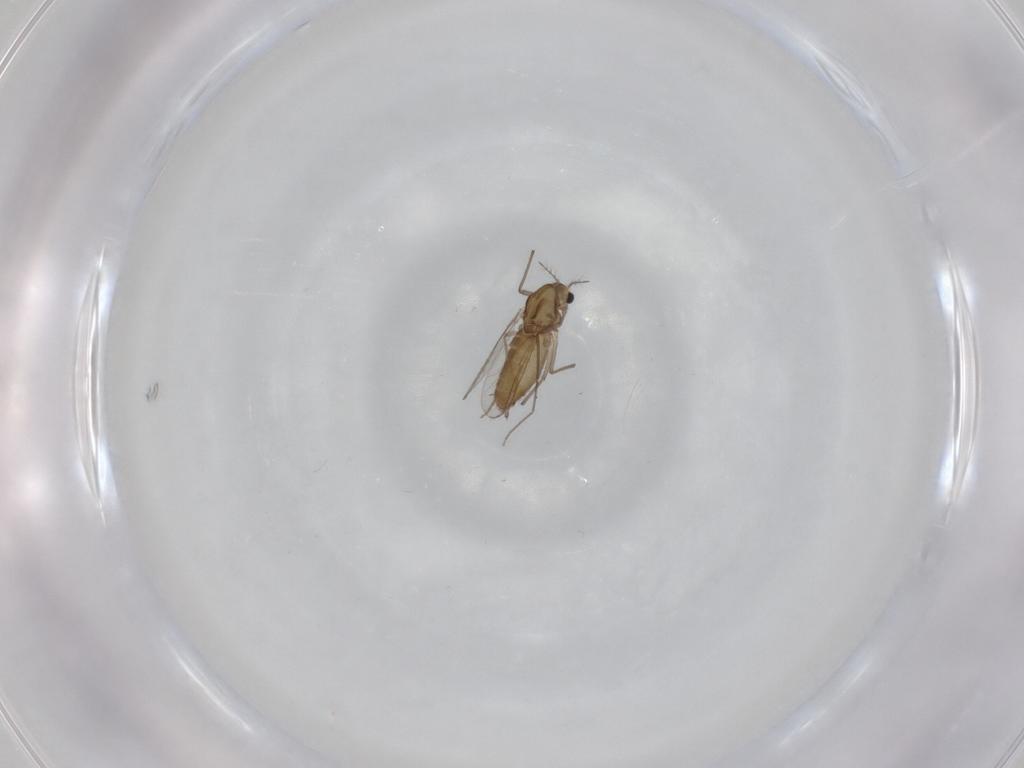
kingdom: Animalia
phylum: Arthropoda
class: Insecta
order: Diptera
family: Chironomidae
